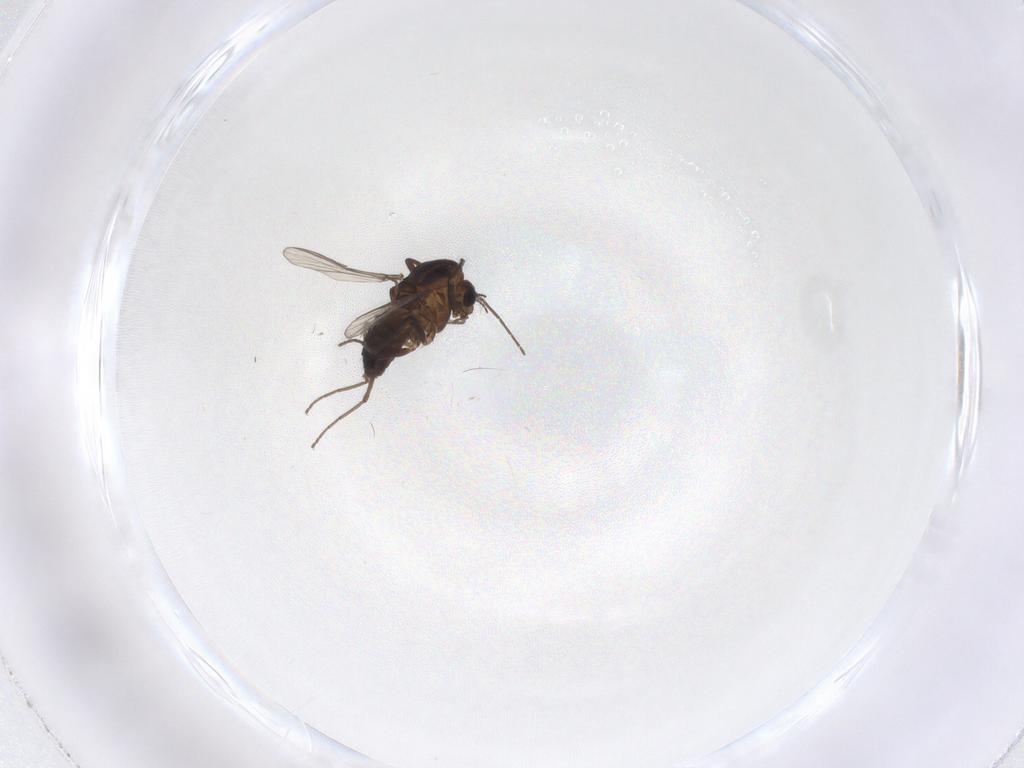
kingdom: Animalia
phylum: Arthropoda
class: Insecta
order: Diptera
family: Chironomidae
